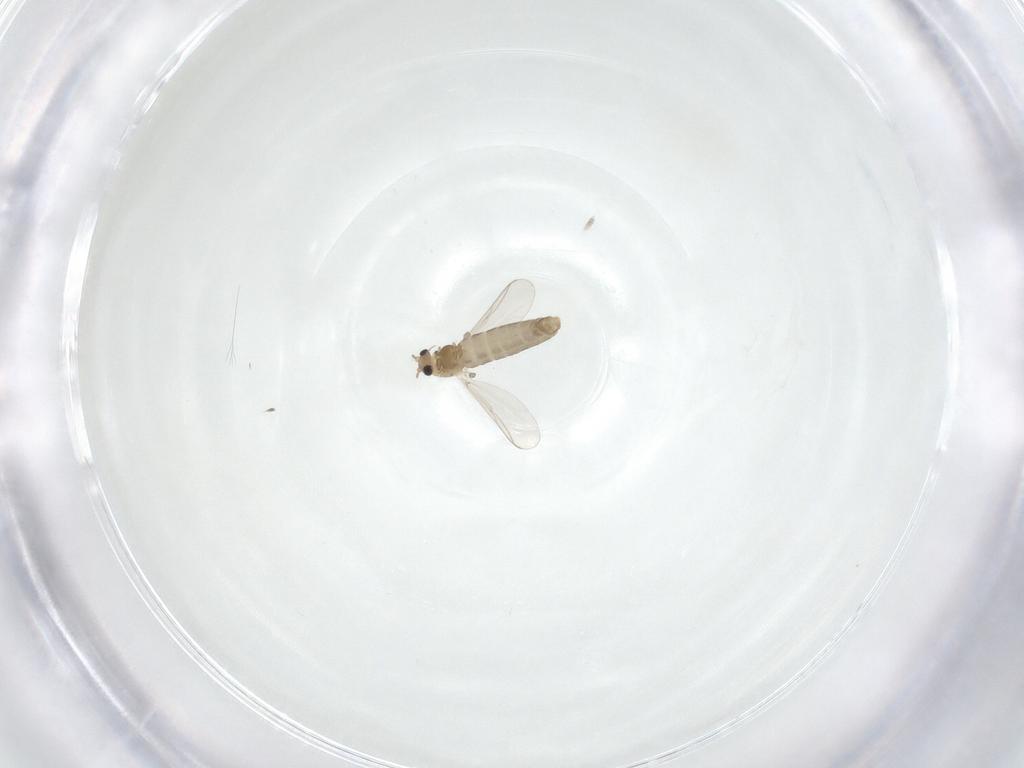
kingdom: Animalia
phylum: Arthropoda
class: Insecta
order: Diptera
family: Chironomidae
